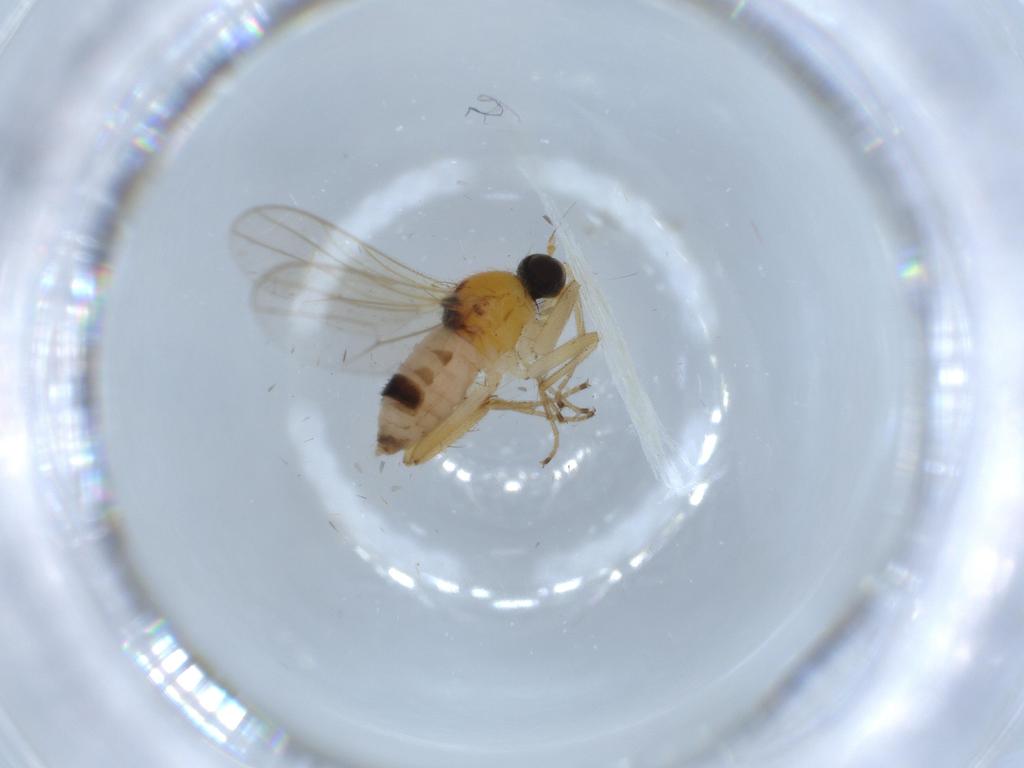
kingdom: Animalia
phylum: Arthropoda
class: Insecta
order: Diptera
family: Hybotidae
